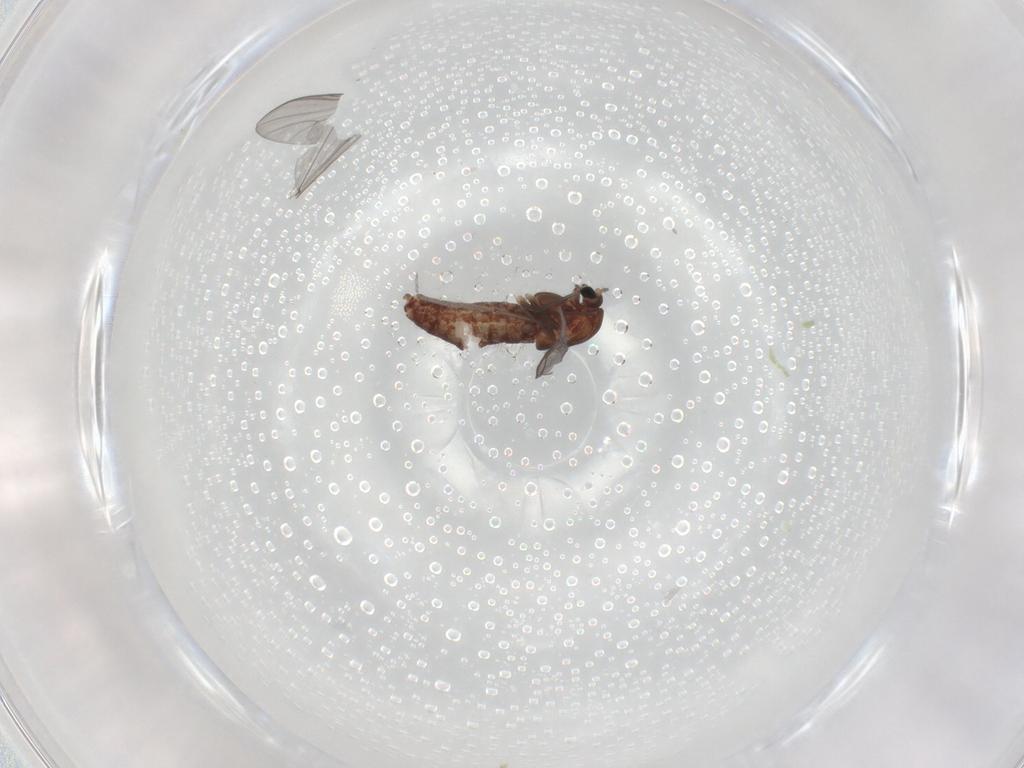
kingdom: Animalia
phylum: Arthropoda
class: Insecta
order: Diptera
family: Chironomidae
